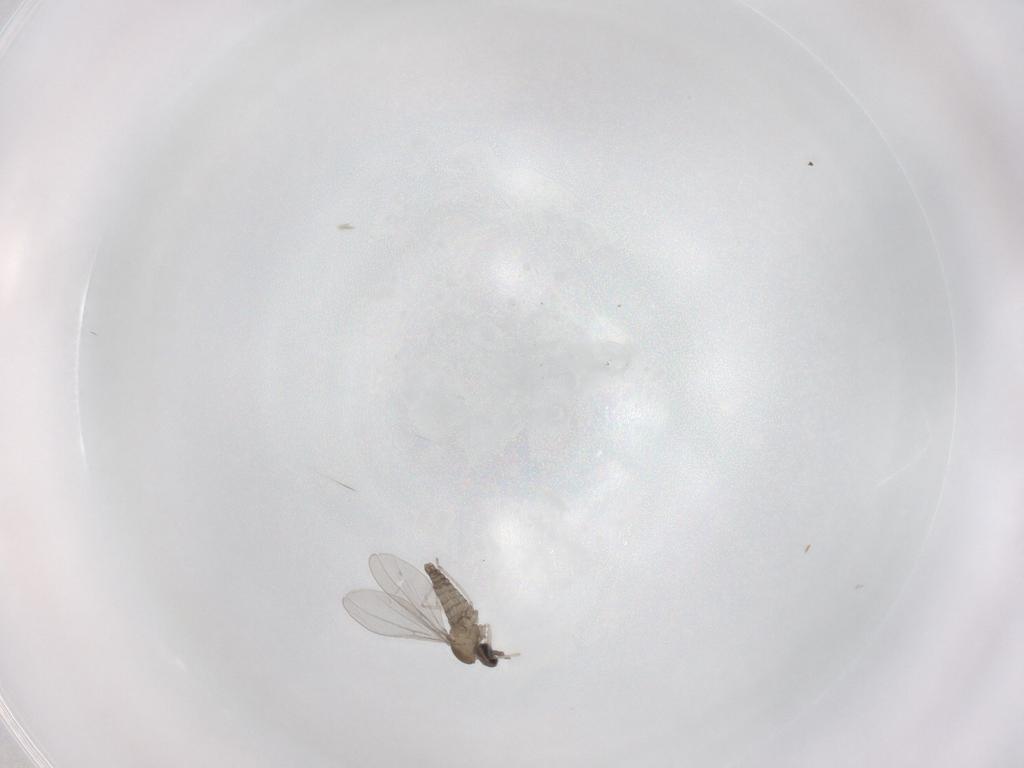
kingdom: Animalia
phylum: Arthropoda
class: Insecta
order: Diptera
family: Cecidomyiidae
